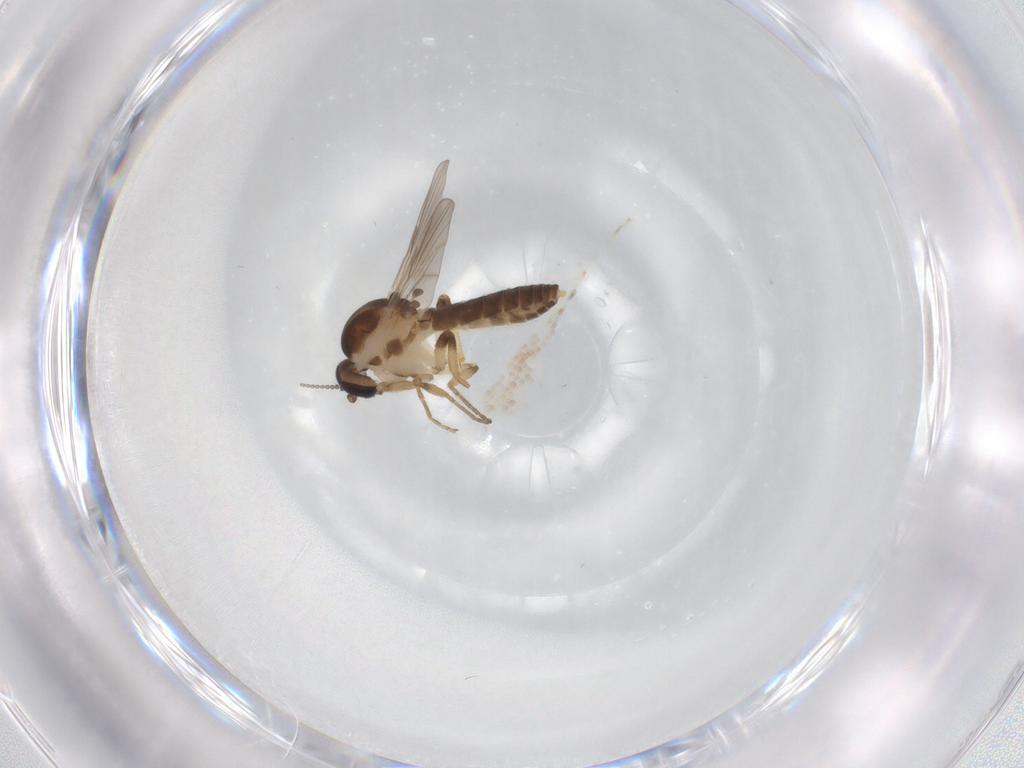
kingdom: Animalia
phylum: Arthropoda
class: Insecta
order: Diptera
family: Ceratopogonidae
